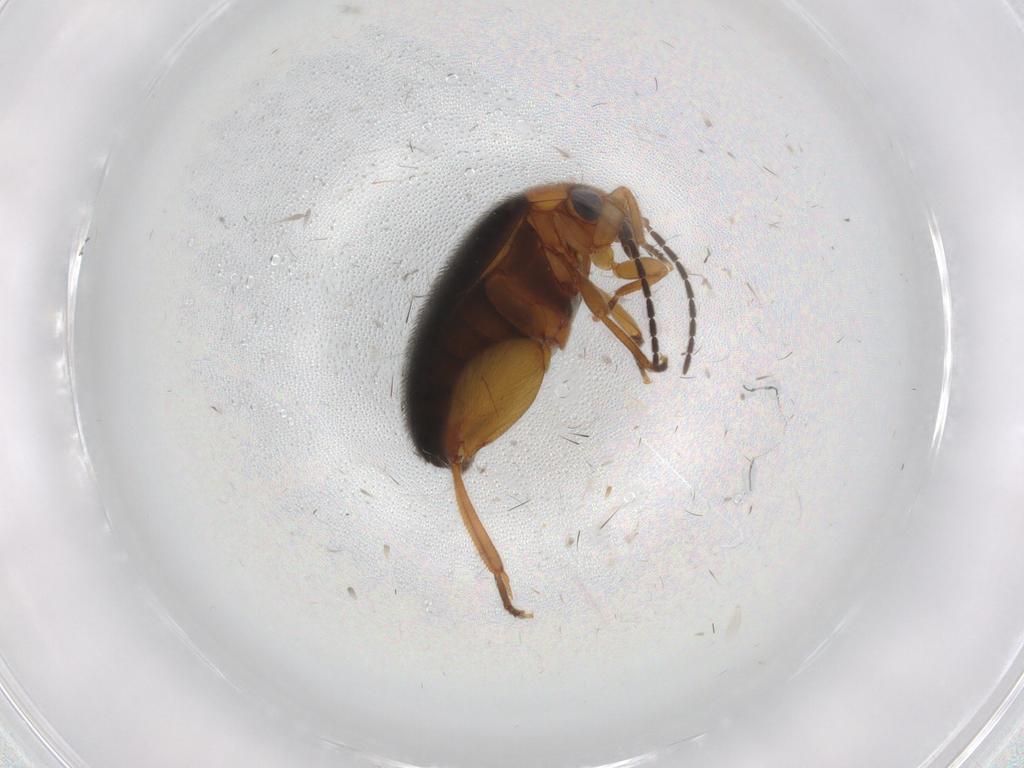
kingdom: Animalia
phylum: Arthropoda
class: Insecta
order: Coleoptera
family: Scirtidae
